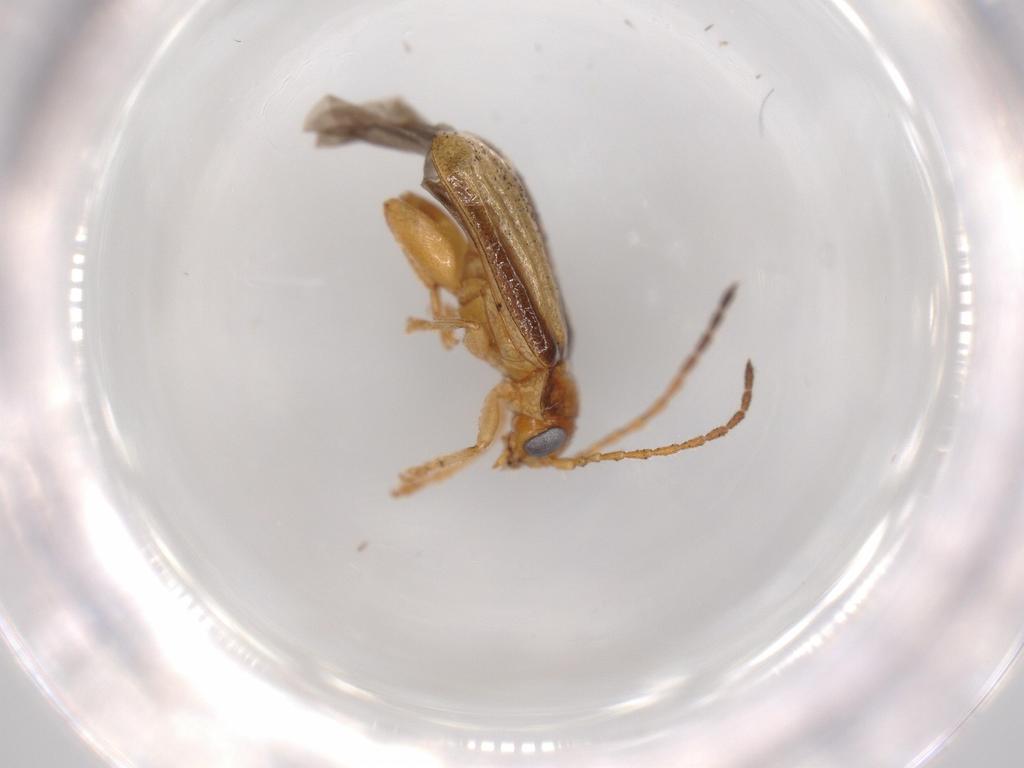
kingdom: Animalia
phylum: Arthropoda
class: Insecta
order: Coleoptera
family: Chrysomelidae
